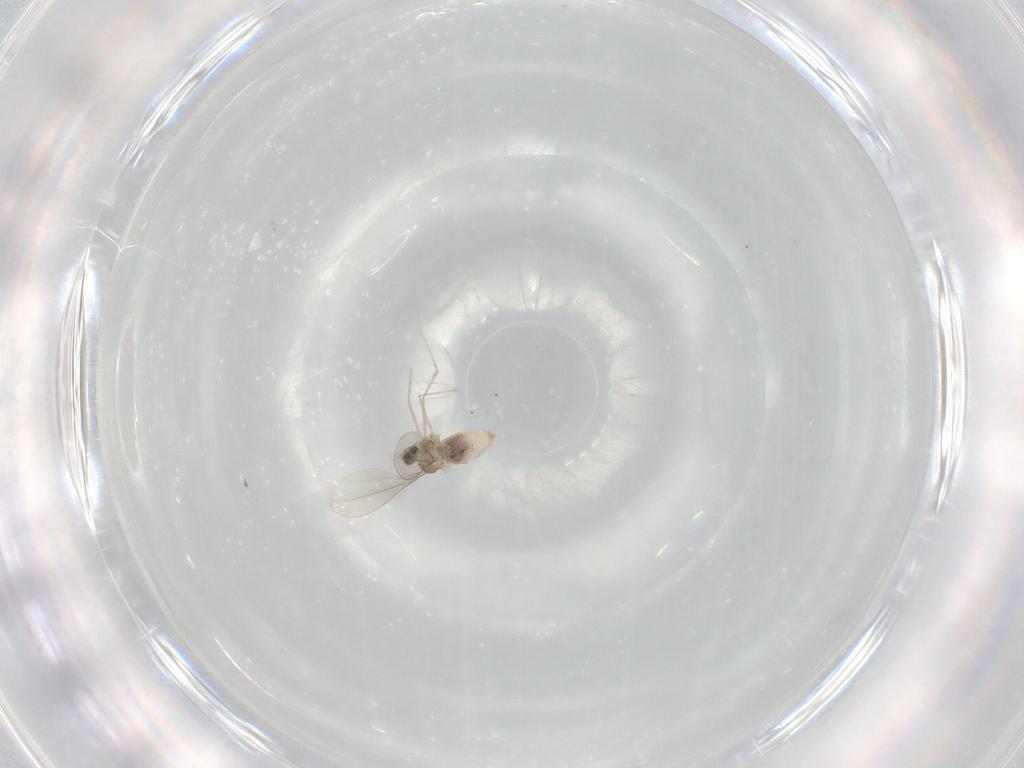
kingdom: Animalia
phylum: Arthropoda
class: Insecta
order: Diptera
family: Cecidomyiidae
